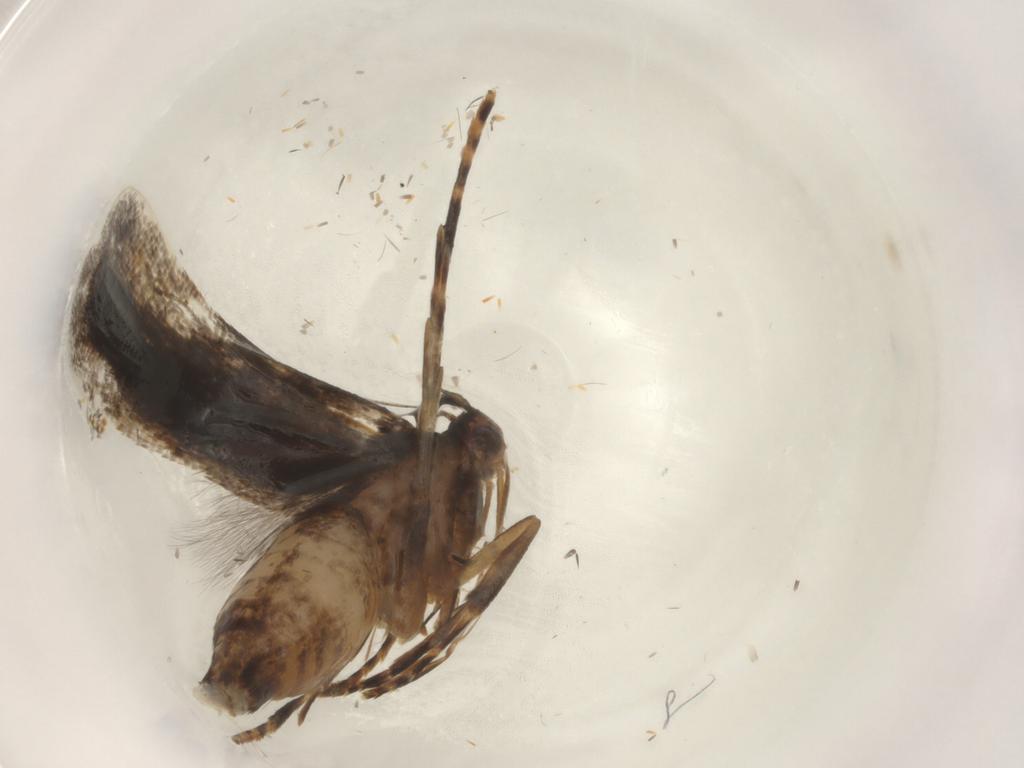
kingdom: Animalia
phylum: Arthropoda
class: Insecta
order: Lepidoptera
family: Gelechiidae
